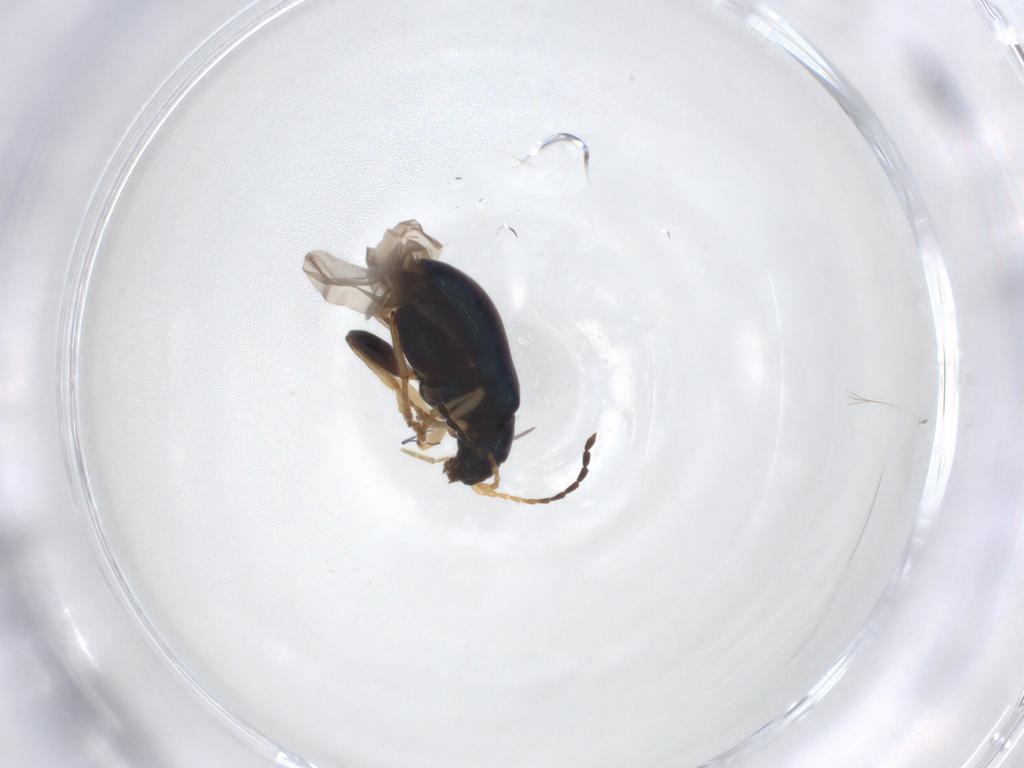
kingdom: Animalia
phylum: Arthropoda
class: Insecta
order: Coleoptera
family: Chrysomelidae
